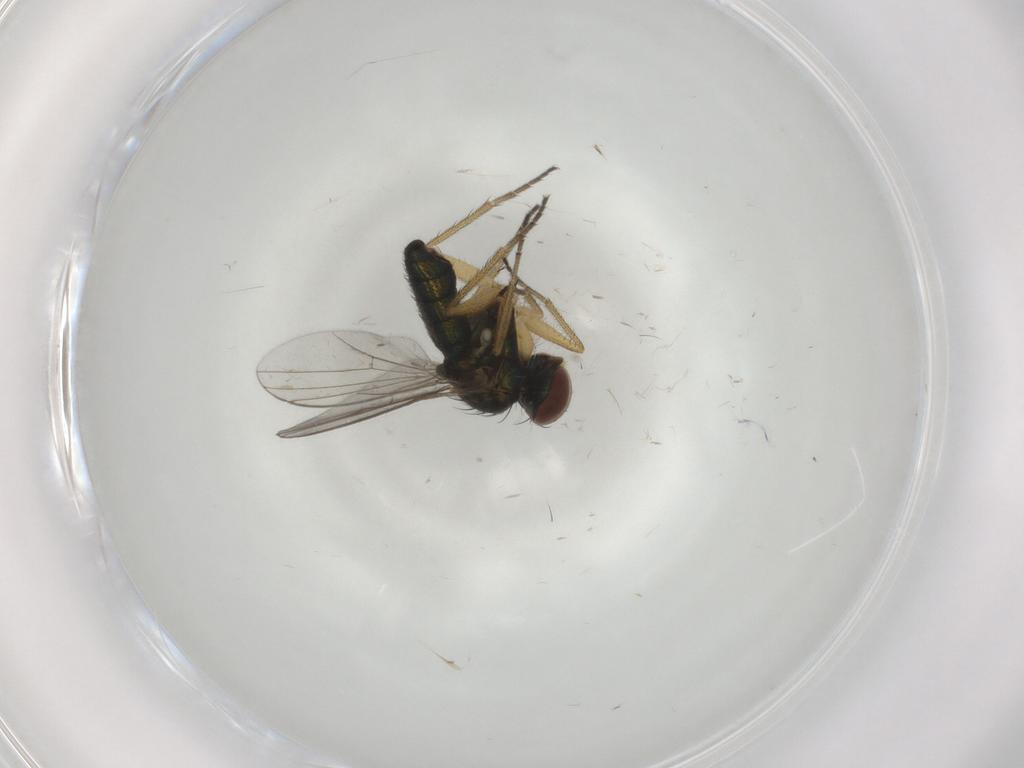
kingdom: Animalia
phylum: Arthropoda
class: Insecta
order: Diptera
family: Dolichopodidae
